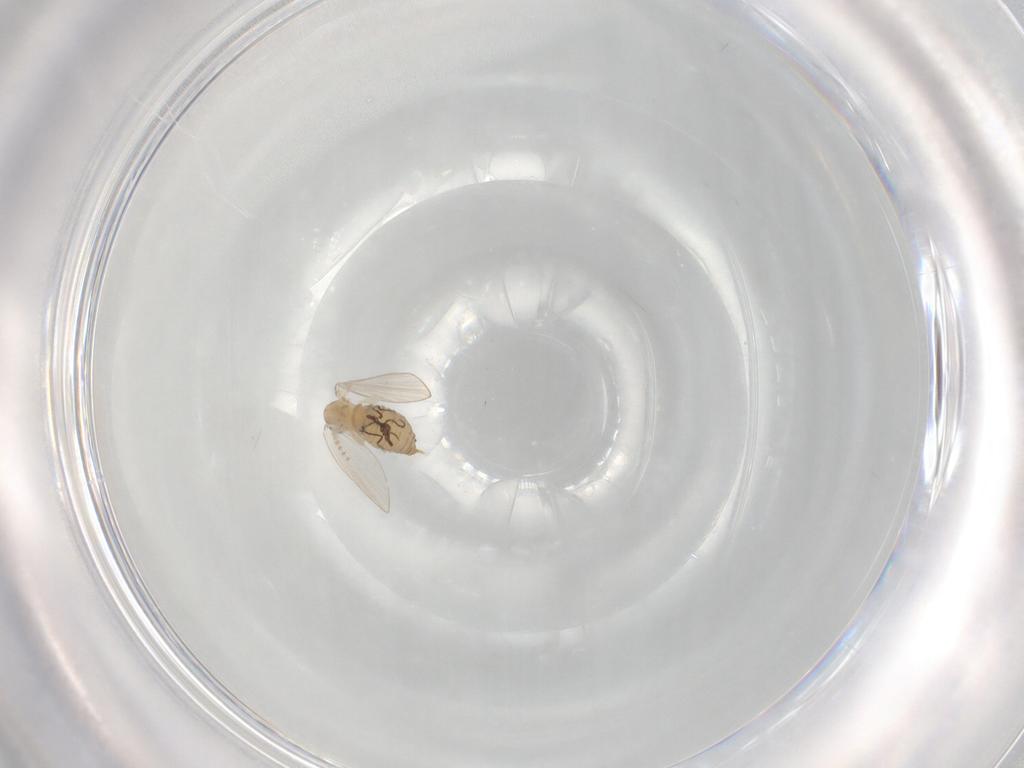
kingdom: Animalia
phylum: Arthropoda
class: Insecta
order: Diptera
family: Psychodidae
